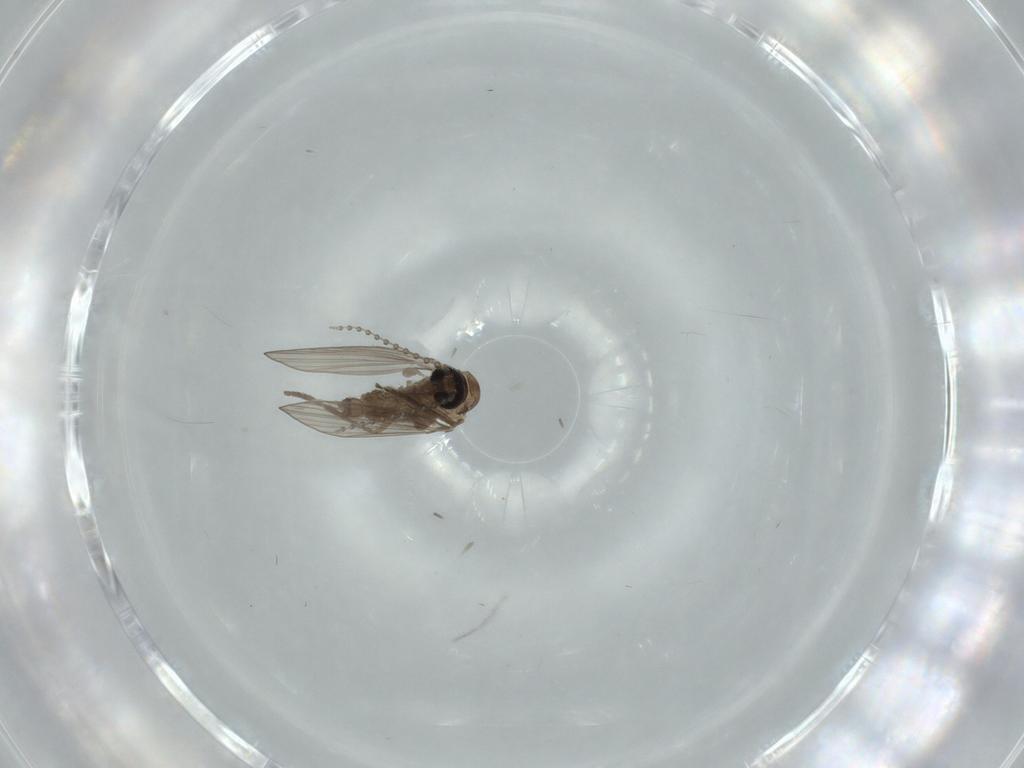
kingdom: Animalia
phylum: Arthropoda
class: Insecta
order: Diptera
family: Psychodidae
